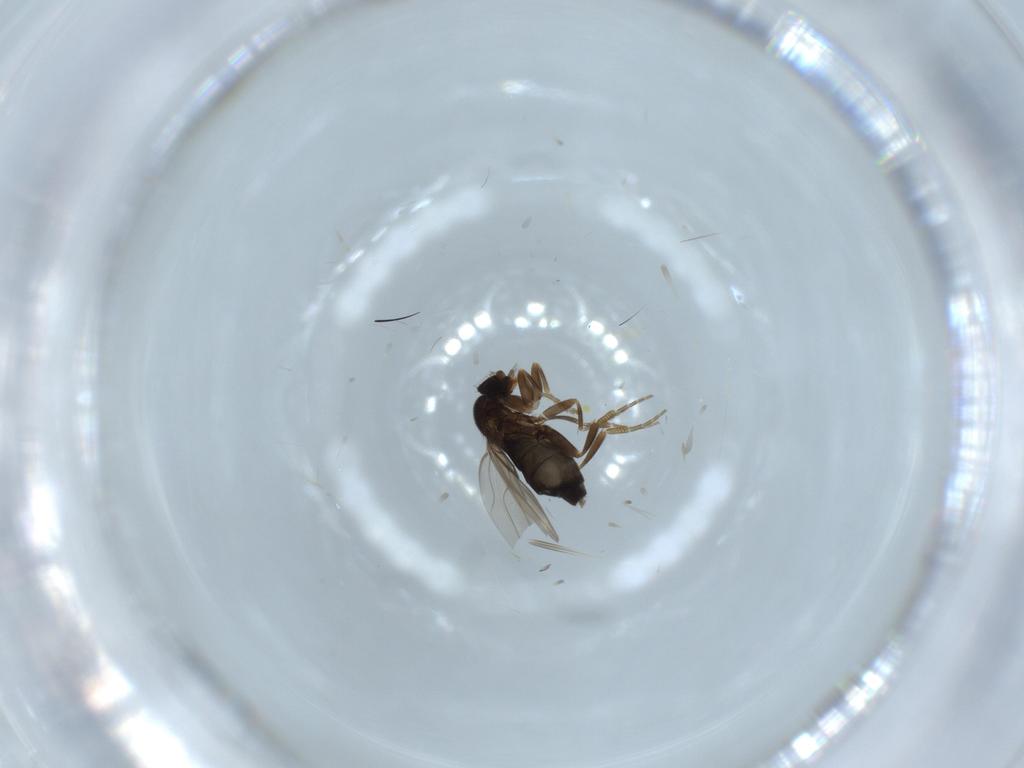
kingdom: Animalia
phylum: Arthropoda
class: Insecta
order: Diptera
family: Phoridae
